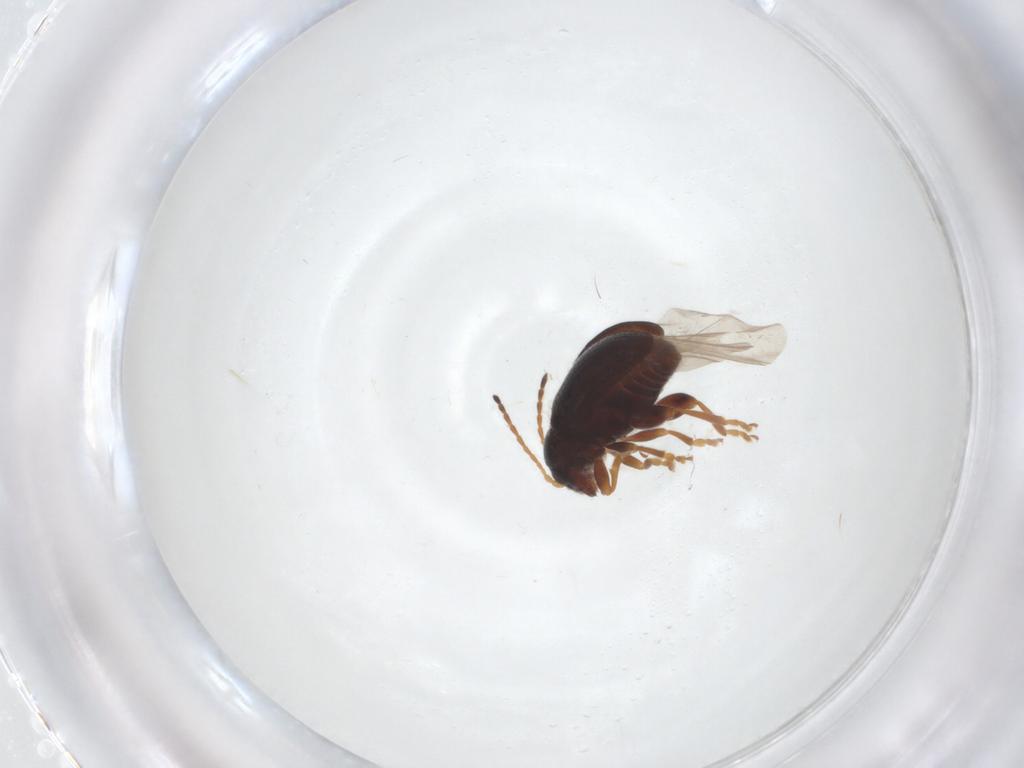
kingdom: Animalia
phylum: Arthropoda
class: Insecta
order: Coleoptera
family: Chrysomelidae
